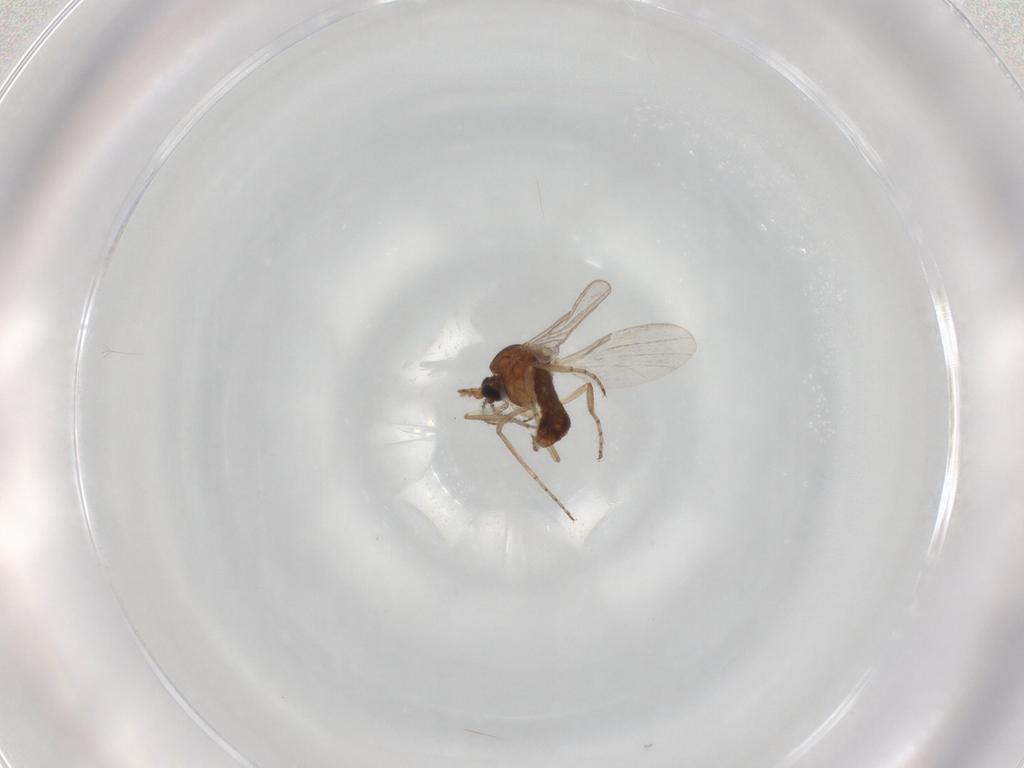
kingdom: Animalia
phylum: Arthropoda
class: Insecta
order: Diptera
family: Ceratopogonidae
